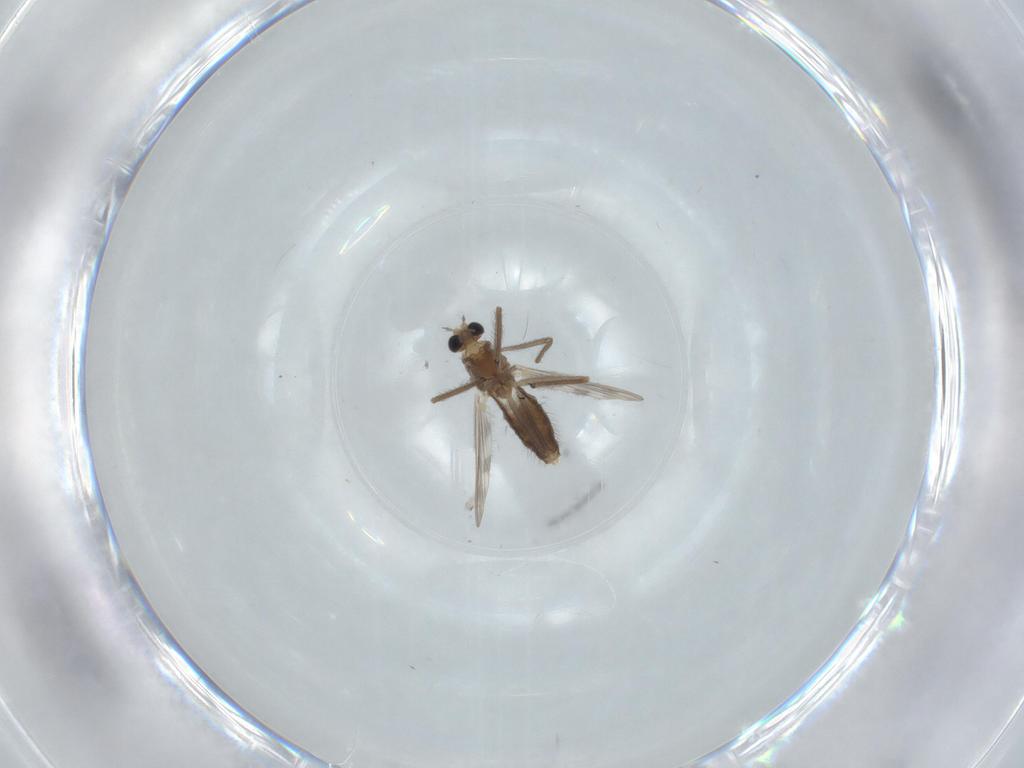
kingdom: Animalia
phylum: Arthropoda
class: Insecta
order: Diptera
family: Chironomidae
